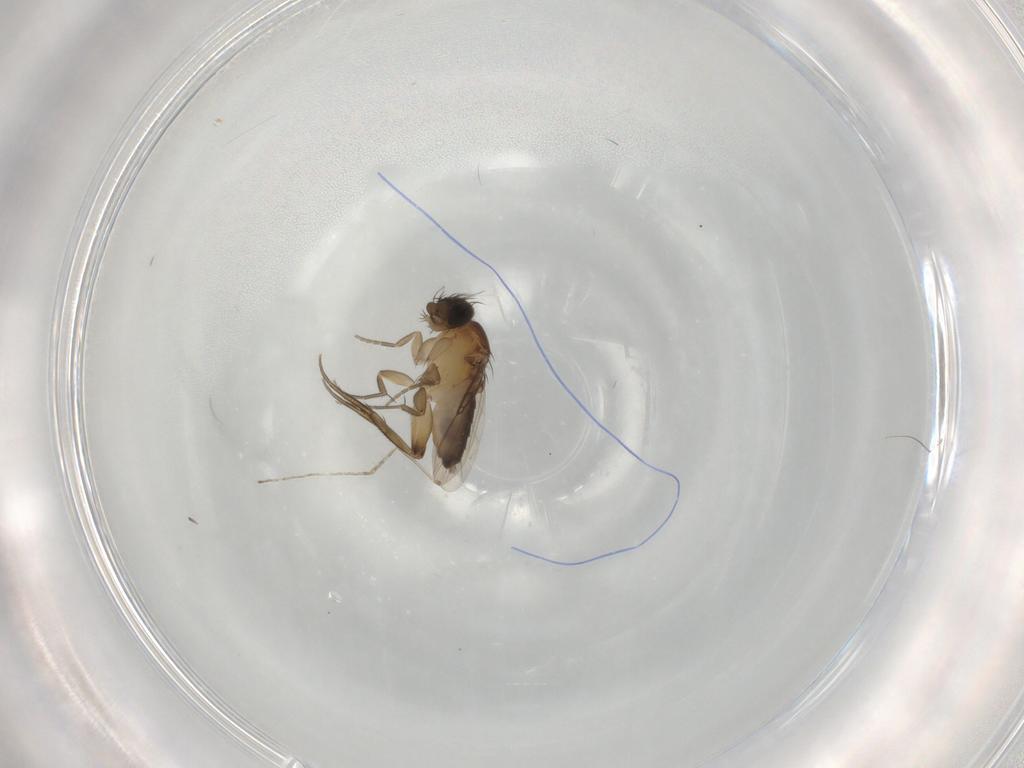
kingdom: Animalia
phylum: Arthropoda
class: Insecta
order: Diptera
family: Phoridae
